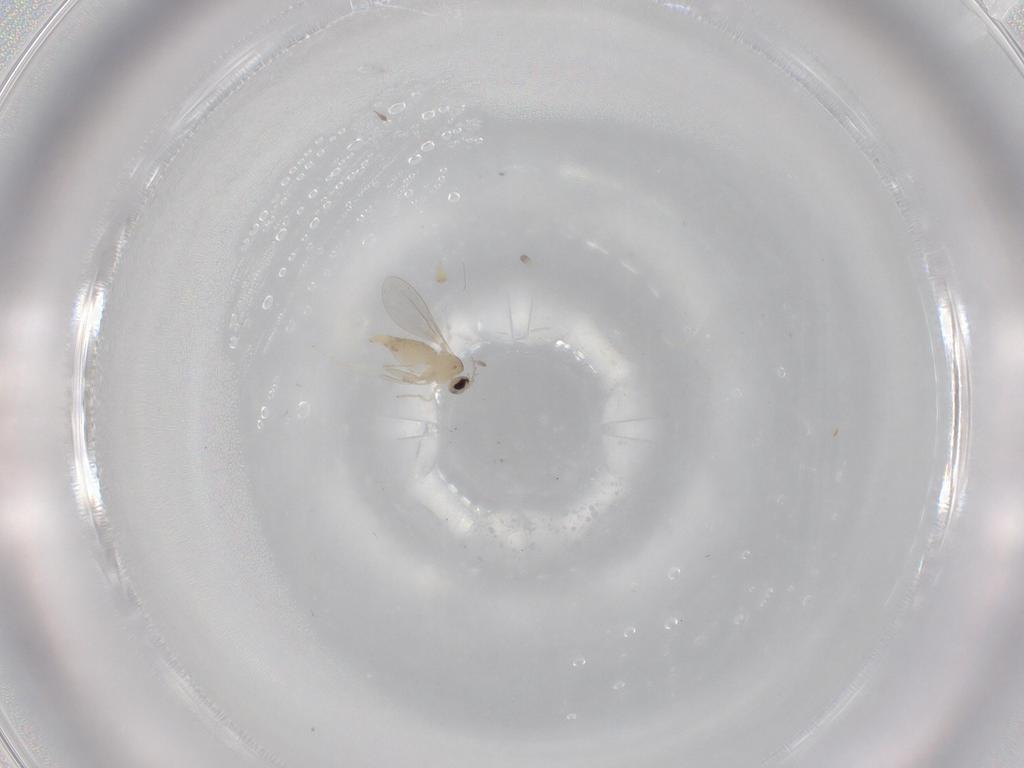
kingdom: Animalia
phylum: Arthropoda
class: Insecta
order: Diptera
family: Cecidomyiidae
